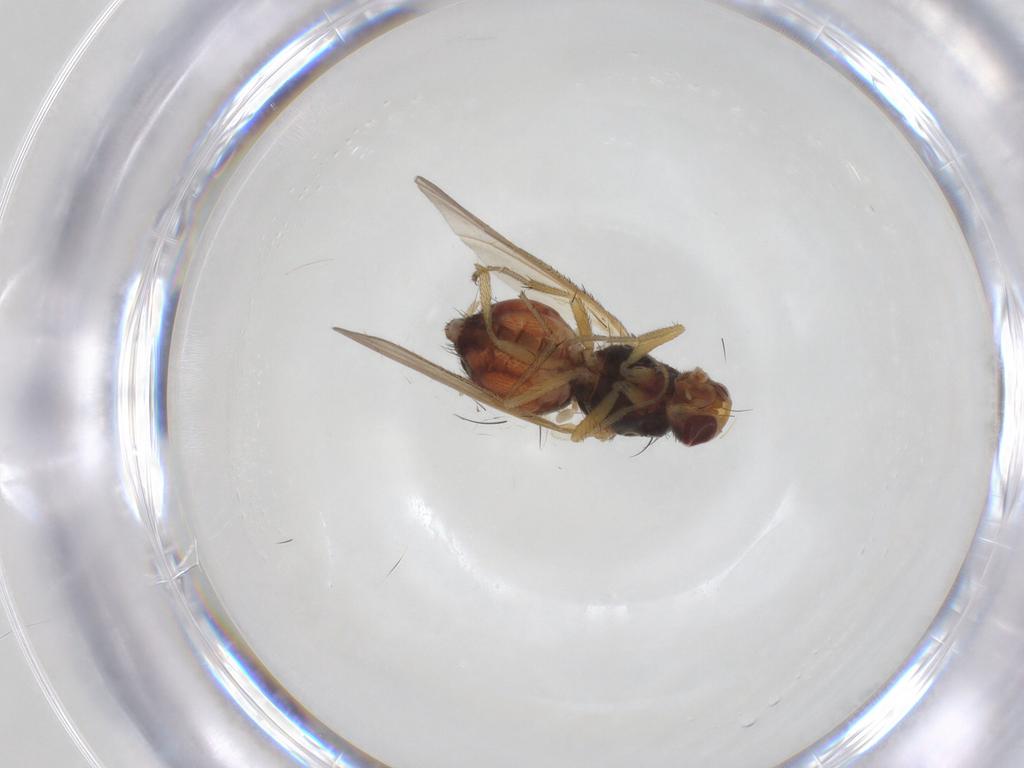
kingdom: Animalia
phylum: Arthropoda
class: Insecta
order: Diptera
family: Heleomyzidae
